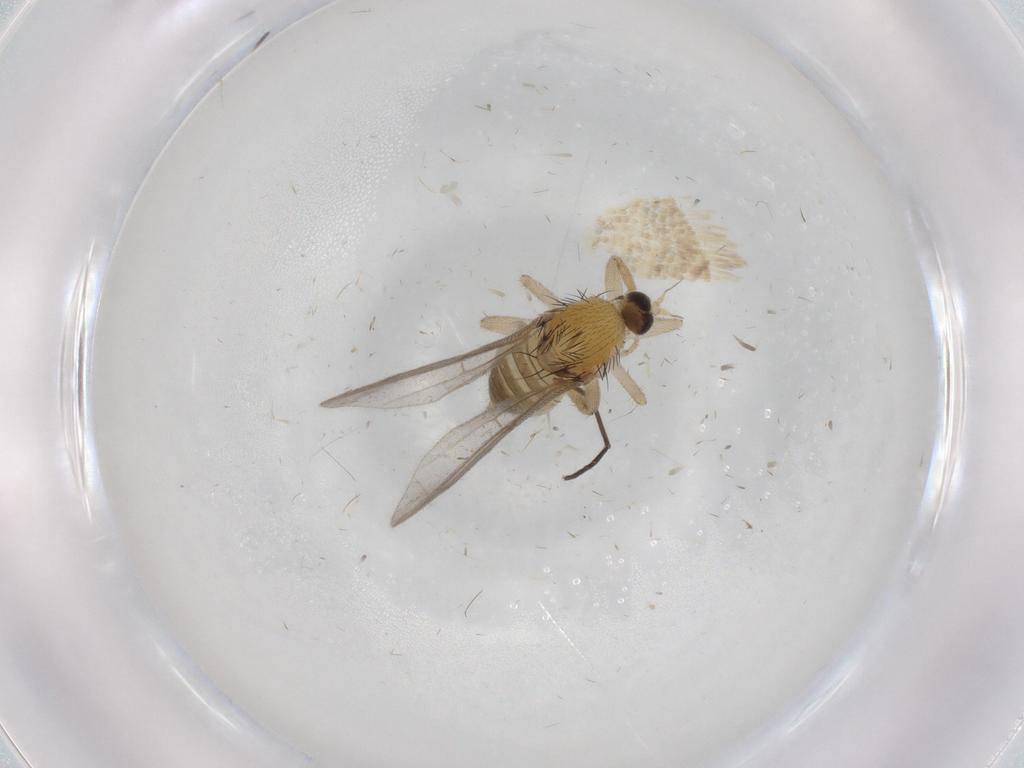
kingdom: Animalia
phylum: Arthropoda
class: Insecta
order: Diptera
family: Hybotidae
